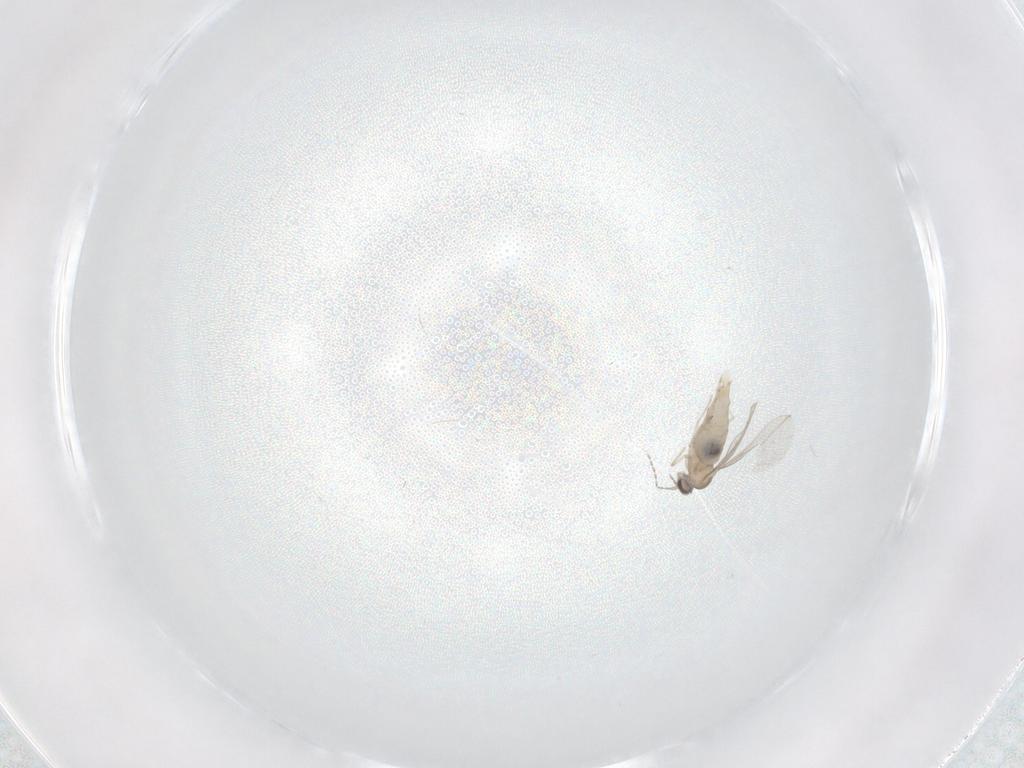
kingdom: Animalia
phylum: Arthropoda
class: Insecta
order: Diptera
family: Cecidomyiidae
